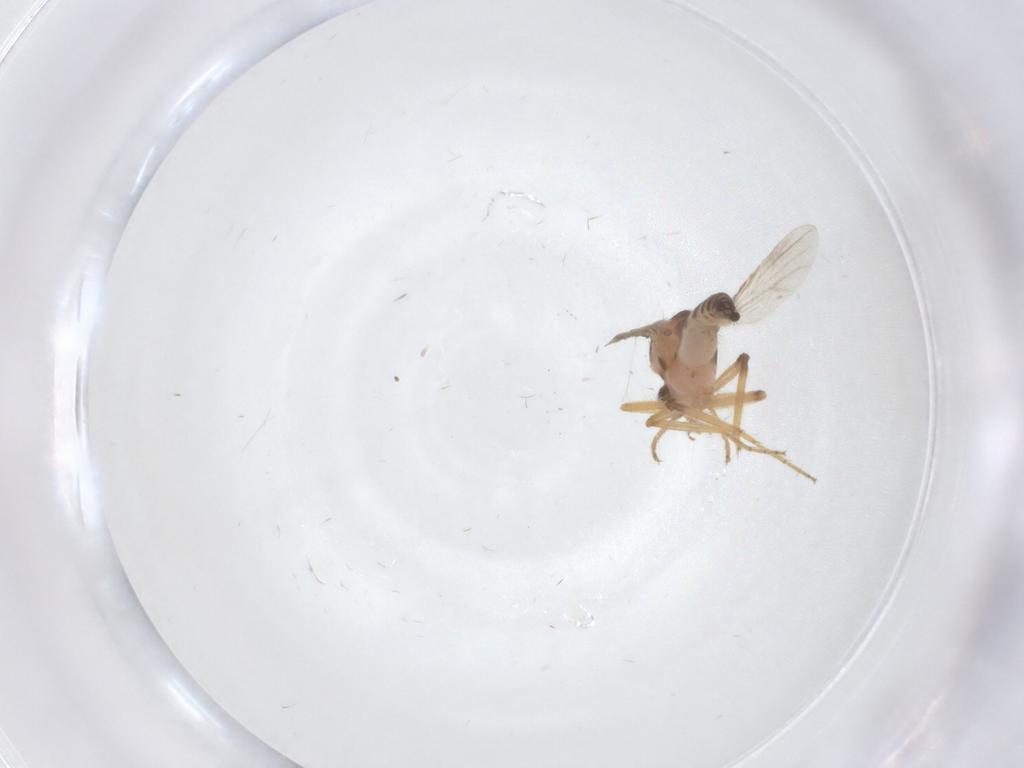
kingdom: Animalia
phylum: Arthropoda
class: Insecta
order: Diptera
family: Ceratopogonidae
